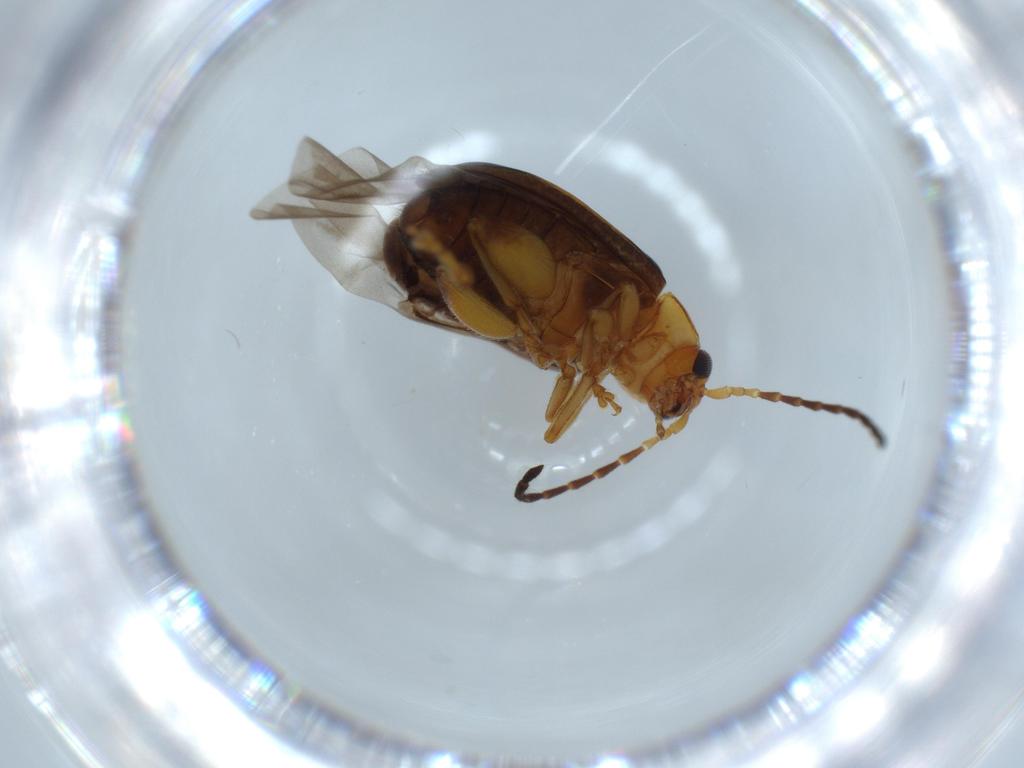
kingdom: Animalia
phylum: Arthropoda
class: Insecta
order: Coleoptera
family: Chrysomelidae
